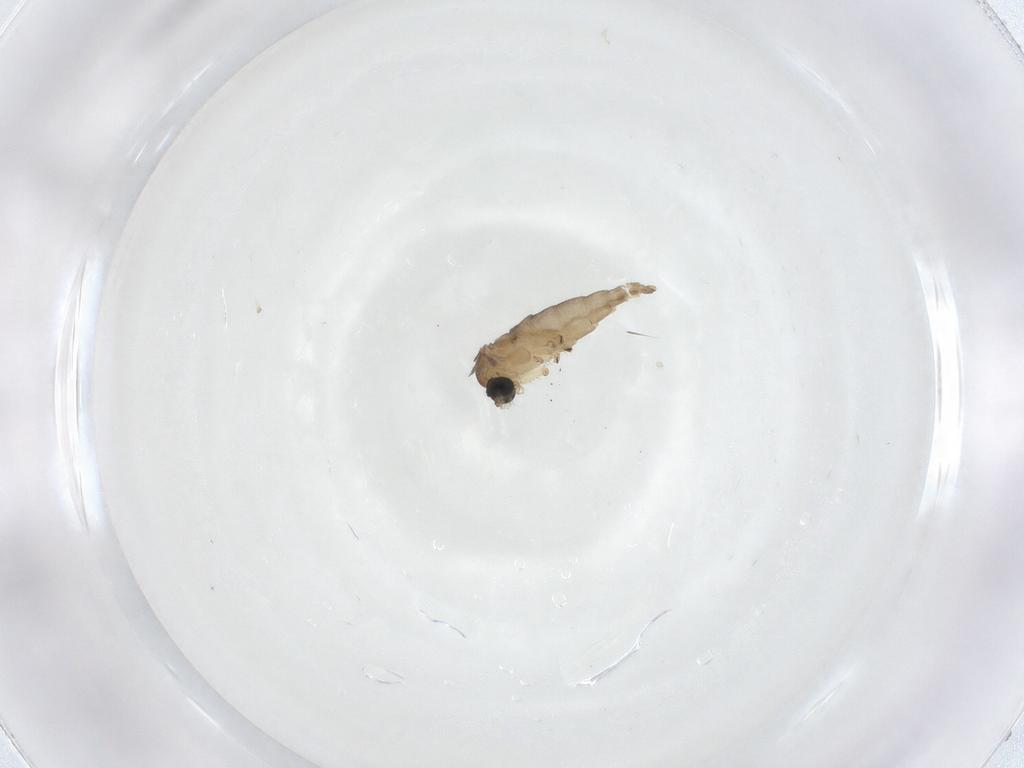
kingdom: Animalia
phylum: Arthropoda
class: Insecta
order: Diptera
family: Sciaridae
